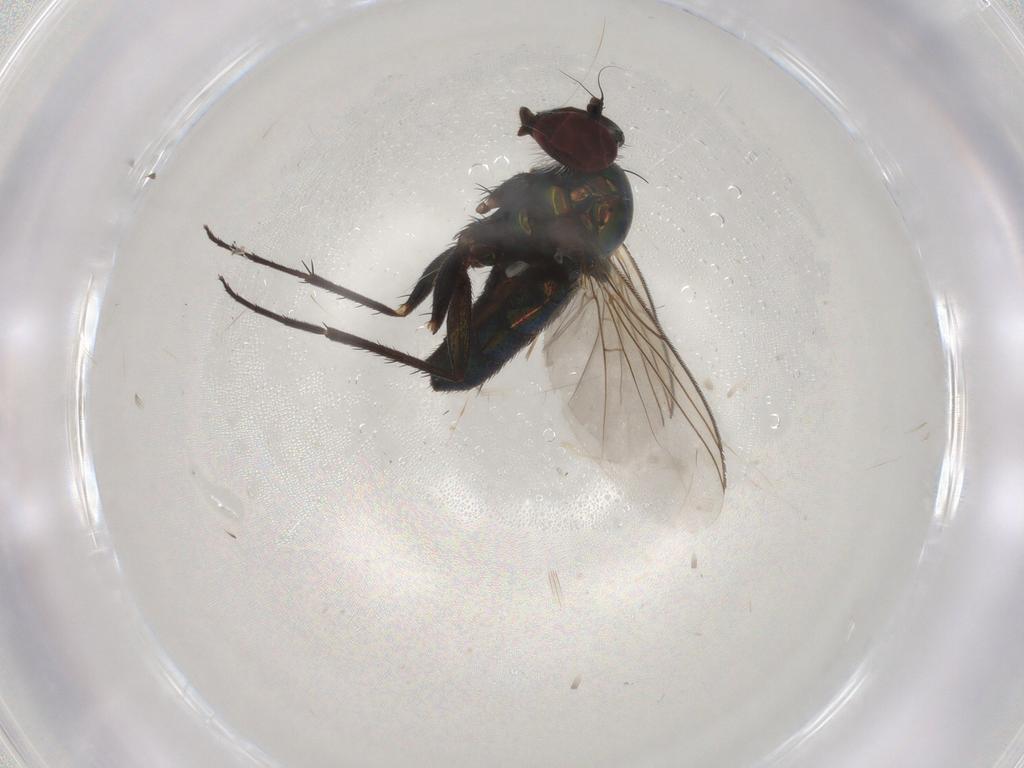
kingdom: Animalia
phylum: Arthropoda
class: Insecta
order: Diptera
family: Dolichopodidae
